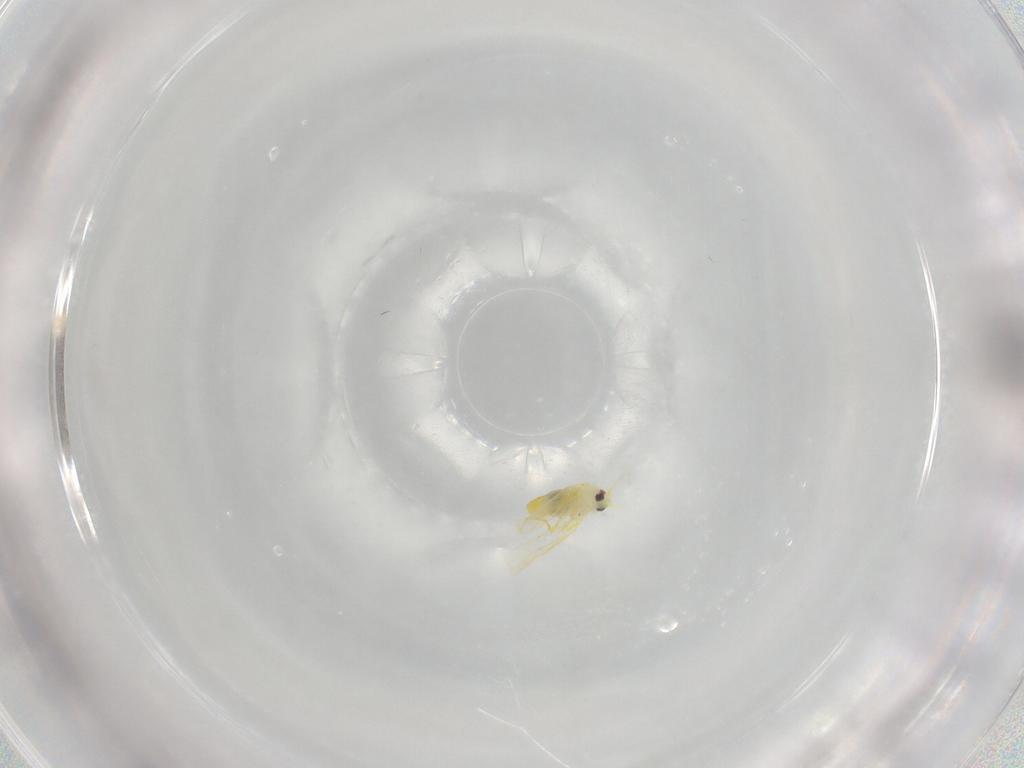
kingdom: Animalia
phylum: Arthropoda
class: Insecta
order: Hemiptera
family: Aleyrodidae
